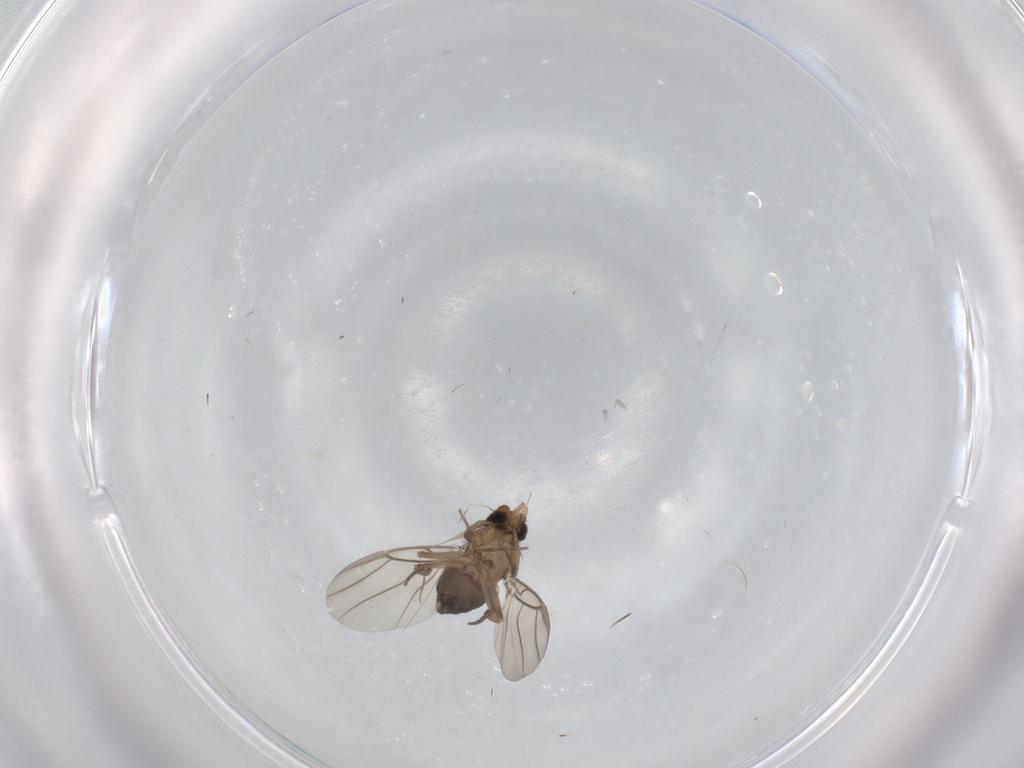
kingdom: Animalia
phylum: Arthropoda
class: Insecta
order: Diptera
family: Phoridae
